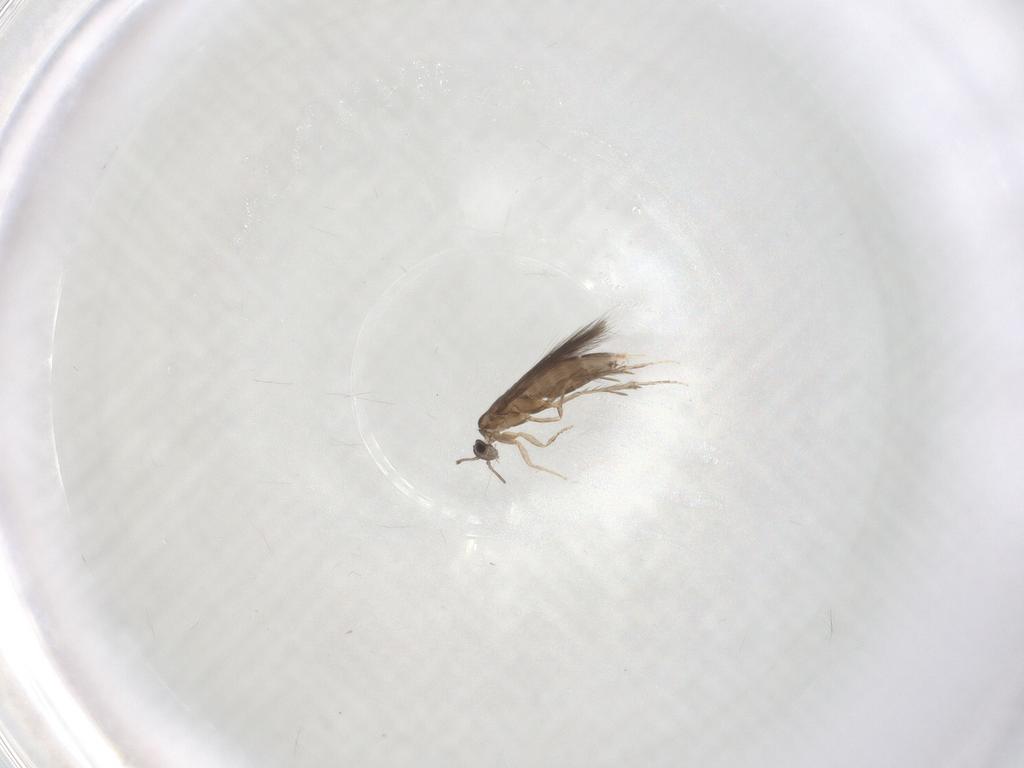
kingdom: Animalia
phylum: Arthropoda
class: Insecta
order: Trichoptera
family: Hydroptilidae
